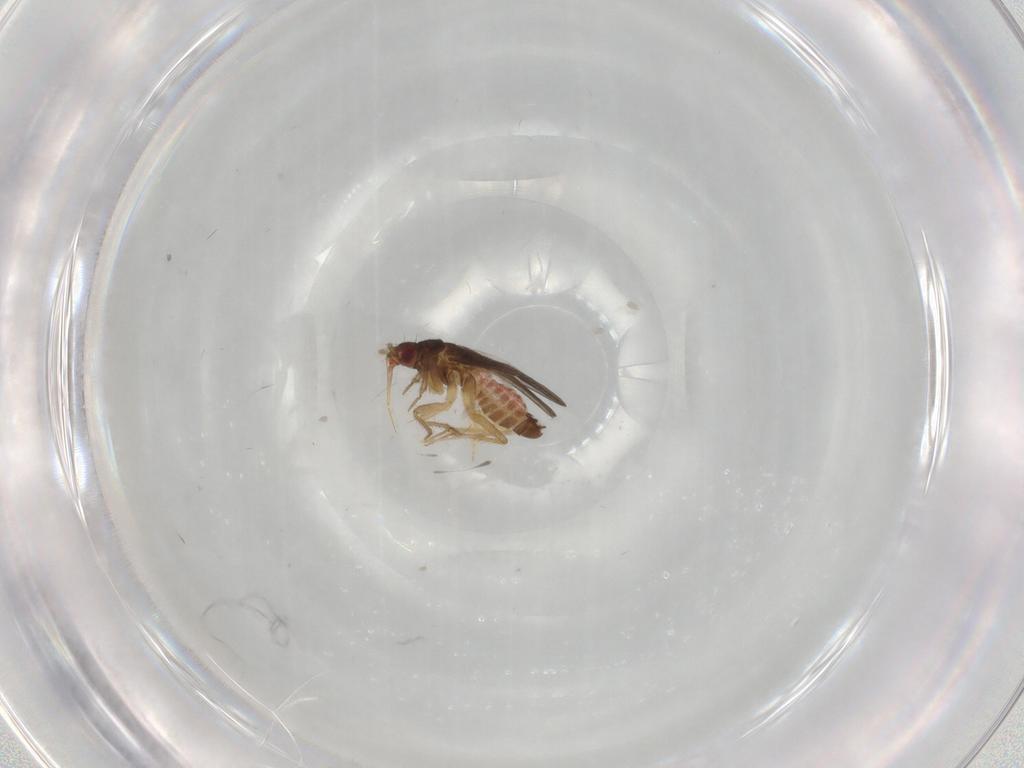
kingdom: Animalia
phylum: Arthropoda
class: Insecta
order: Hemiptera
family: Ceratocombidae
